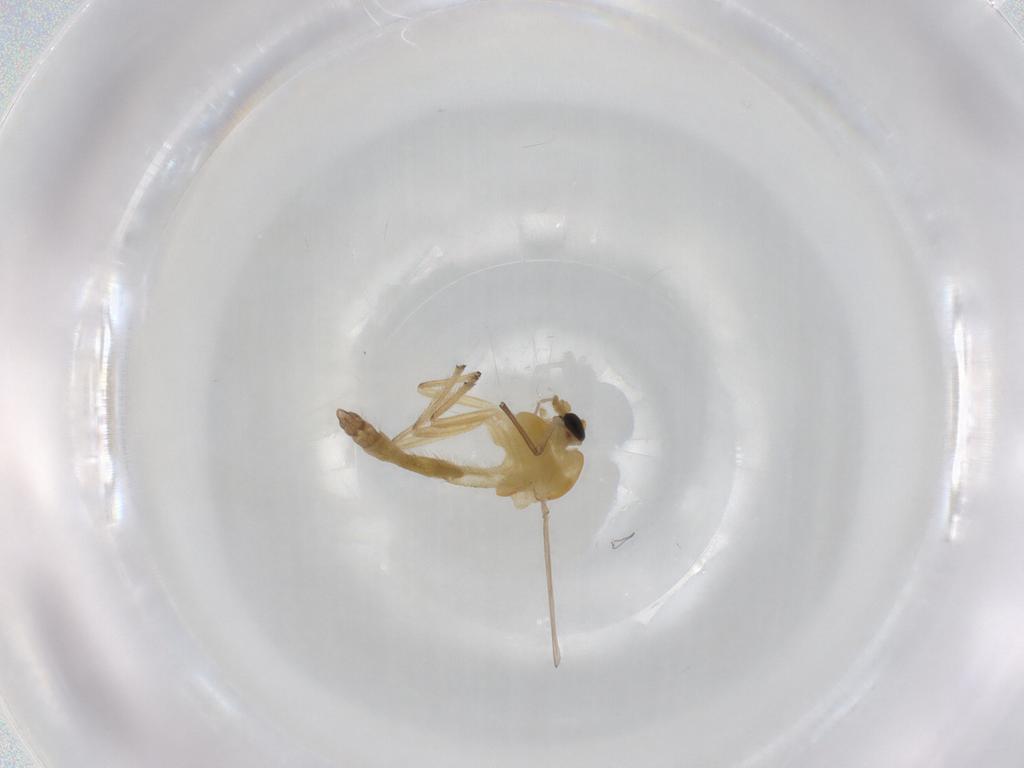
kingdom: Animalia
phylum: Arthropoda
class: Insecta
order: Diptera
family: Chironomidae
